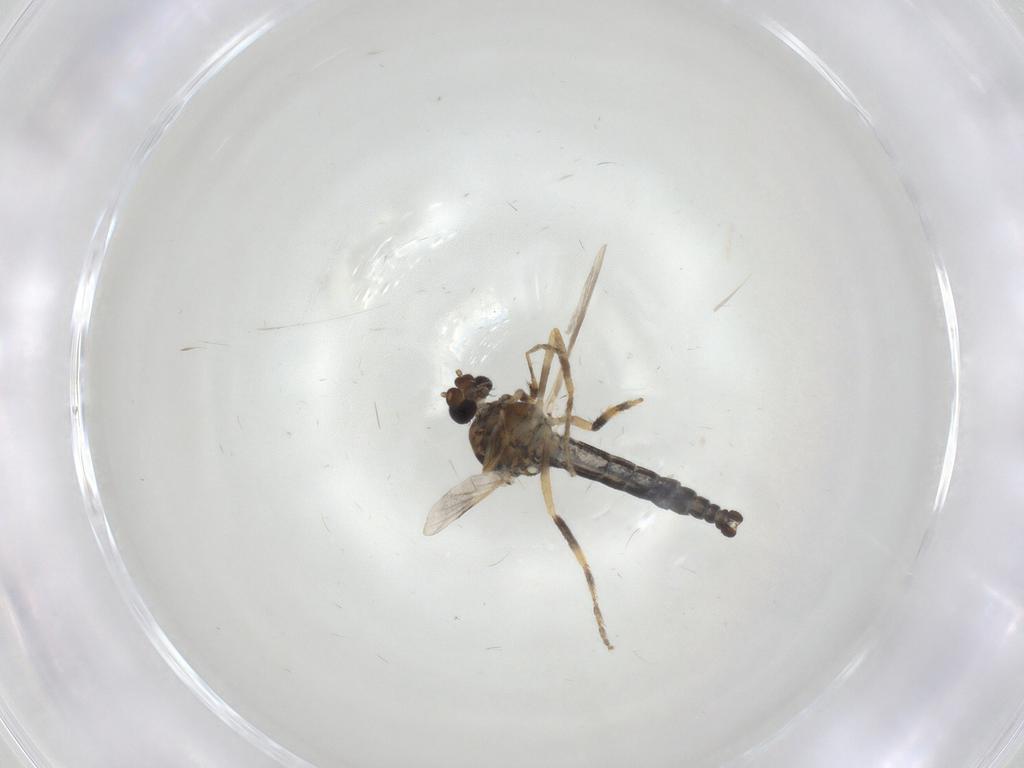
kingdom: Animalia
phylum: Arthropoda
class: Insecta
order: Diptera
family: Ceratopogonidae
